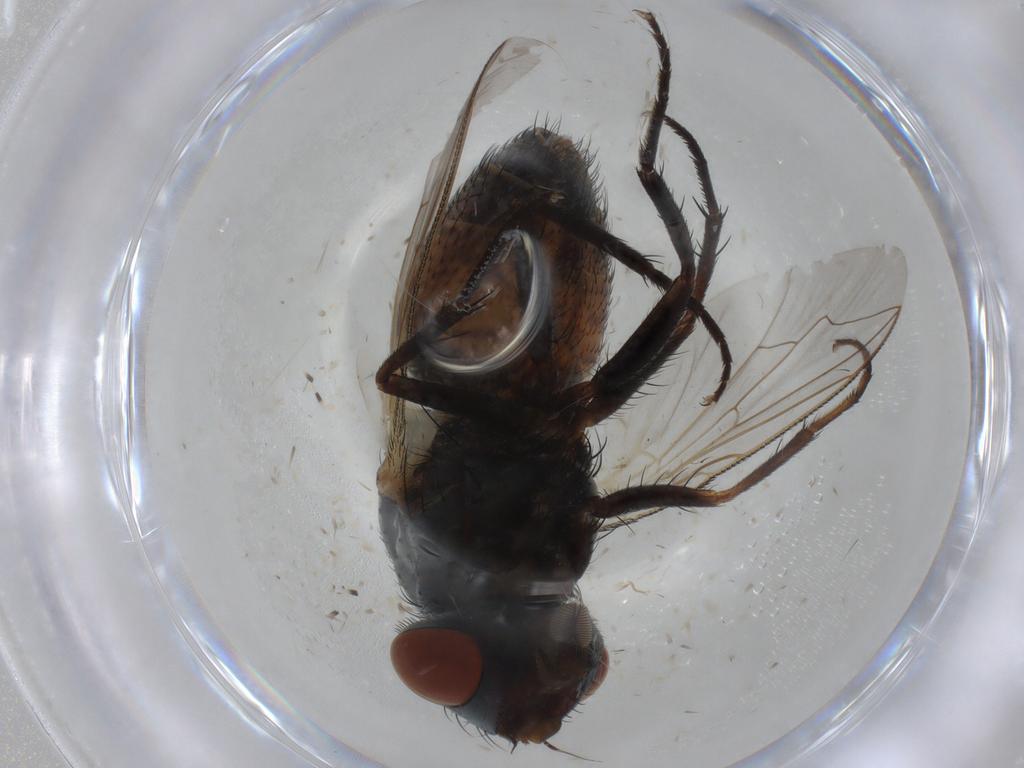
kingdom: Animalia
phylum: Arthropoda
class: Insecta
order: Diptera
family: Sarcophagidae
